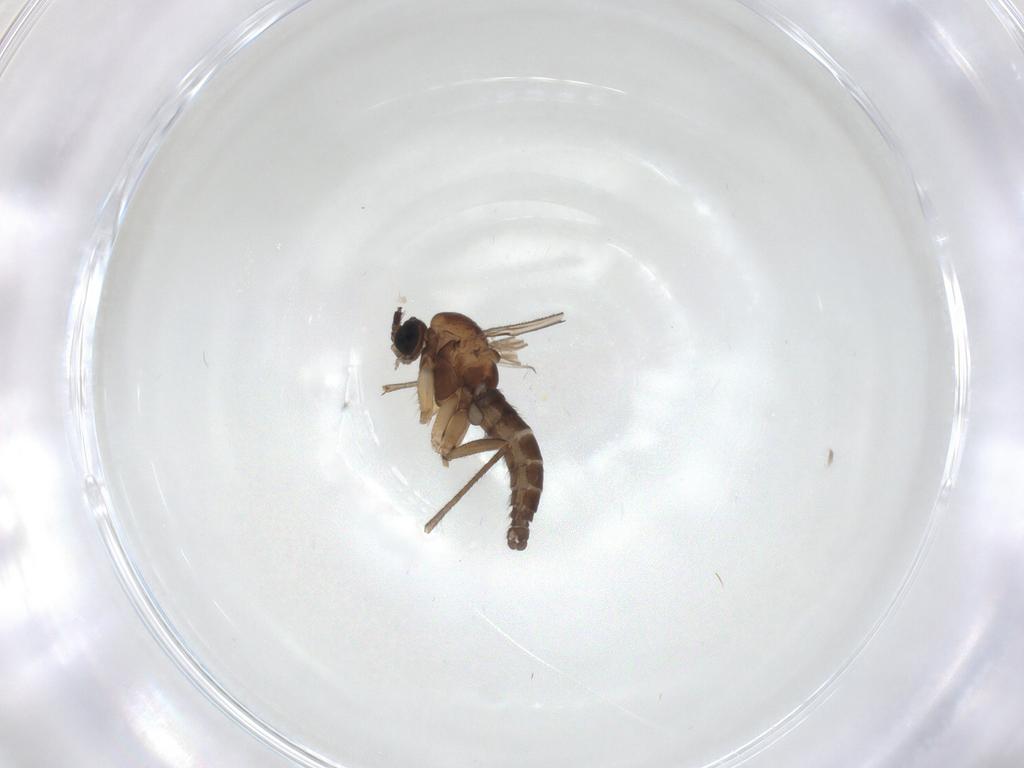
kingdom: Animalia
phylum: Arthropoda
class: Insecta
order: Diptera
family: Sciaridae
